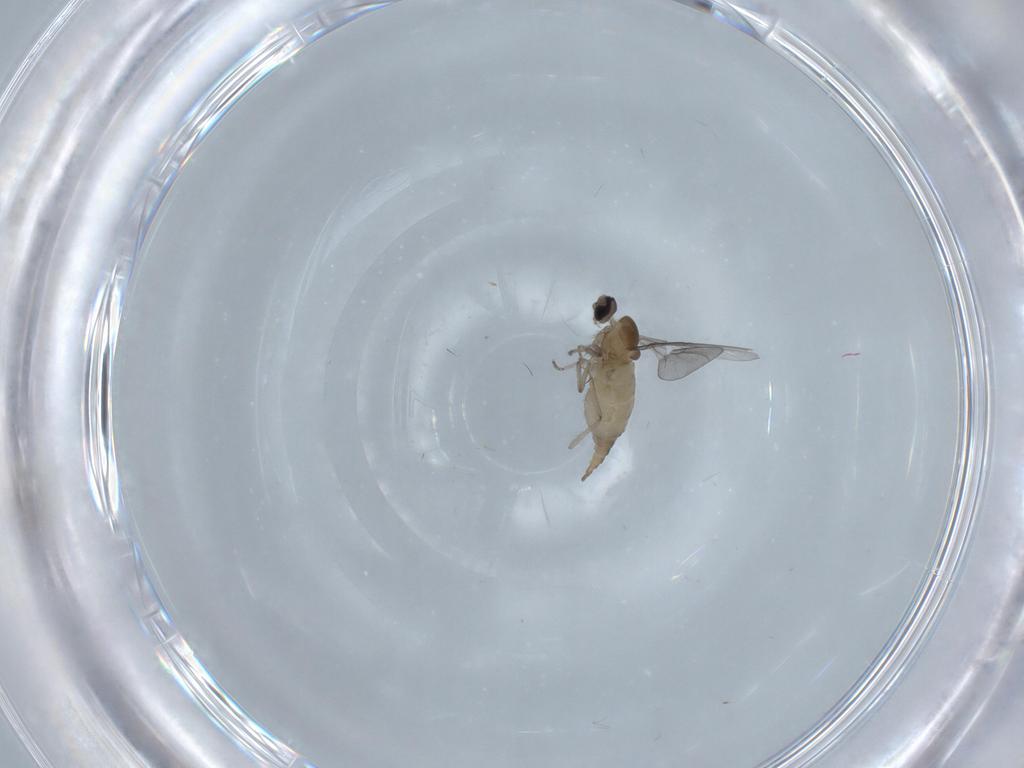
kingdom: Animalia
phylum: Arthropoda
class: Insecta
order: Diptera
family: Cecidomyiidae
